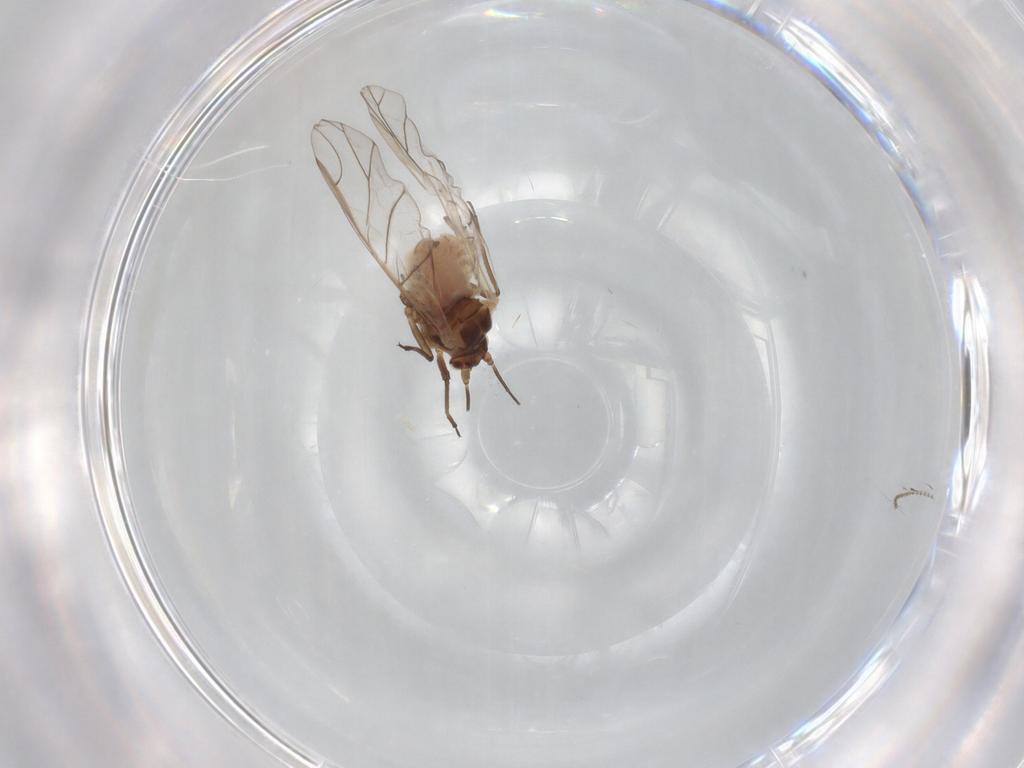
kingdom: Animalia
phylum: Arthropoda
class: Insecta
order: Hemiptera
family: Aphididae
